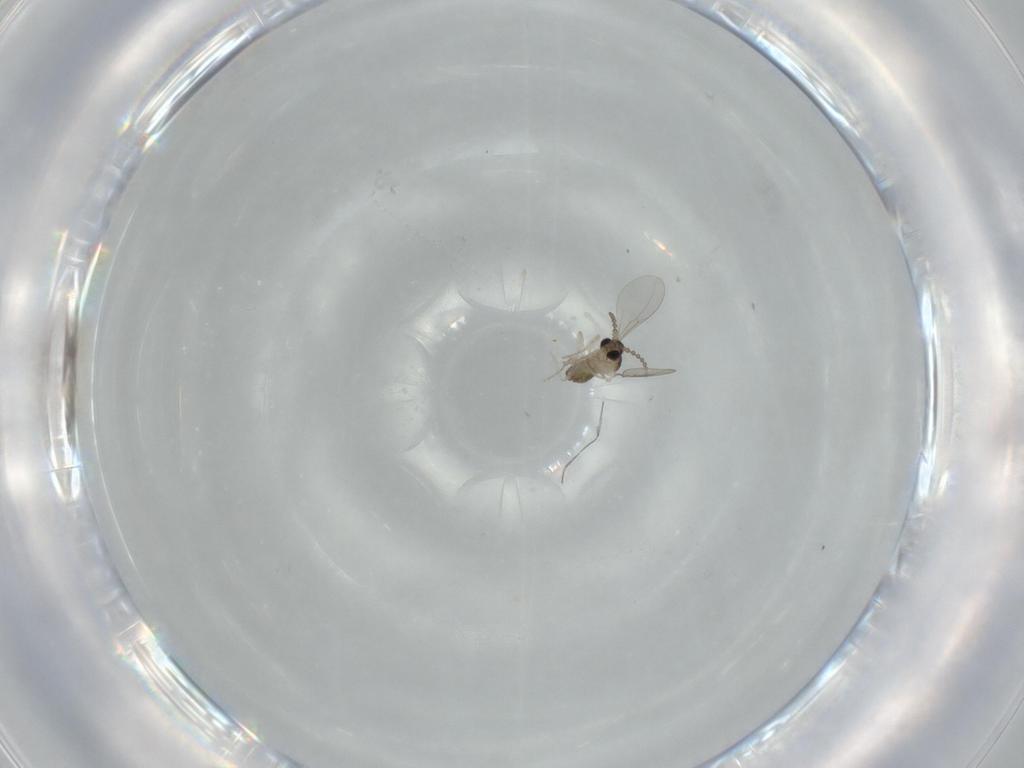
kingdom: Animalia
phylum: Arthropoda
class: Insecta
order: Diptera
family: Cecidomyiidae
